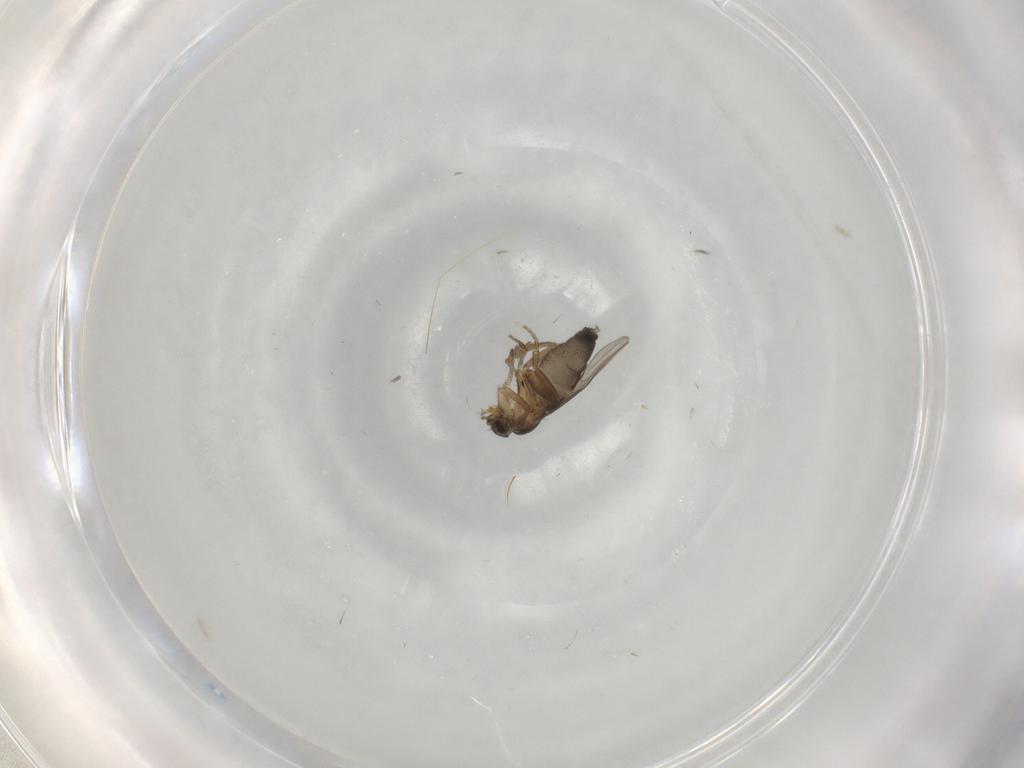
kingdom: Animalia
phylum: Arthropoda
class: Insecta
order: Diptera
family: Phoridae
